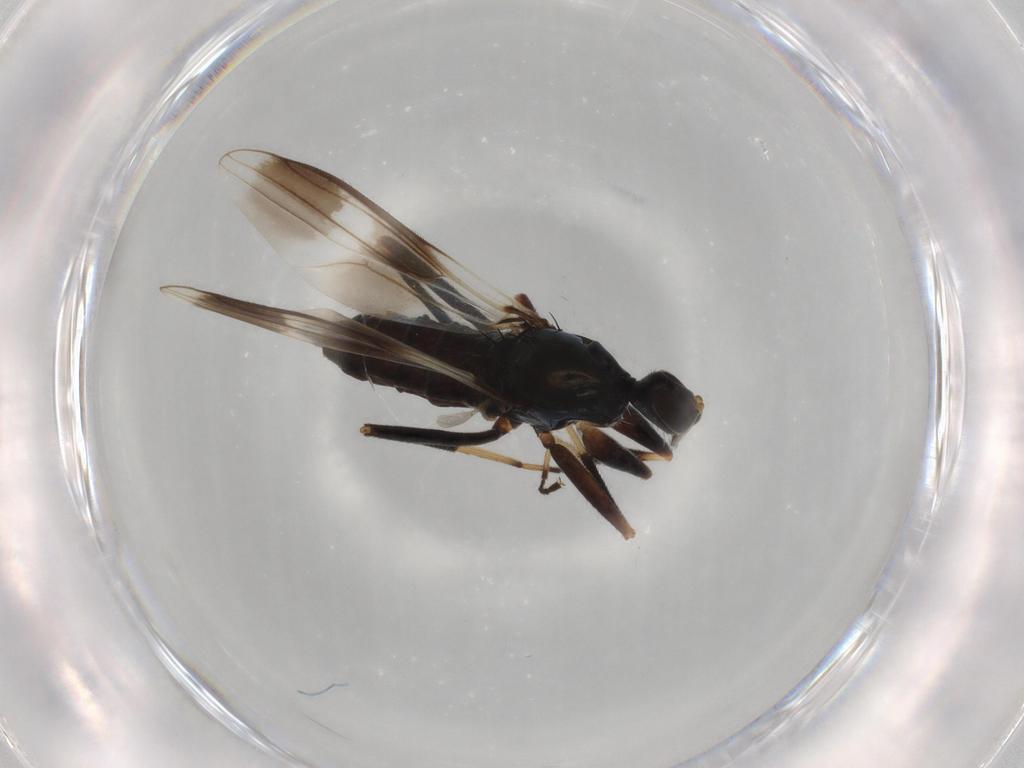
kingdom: Animalia
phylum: Arthropoda
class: Insecta
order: Diptera
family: Hybotidae
